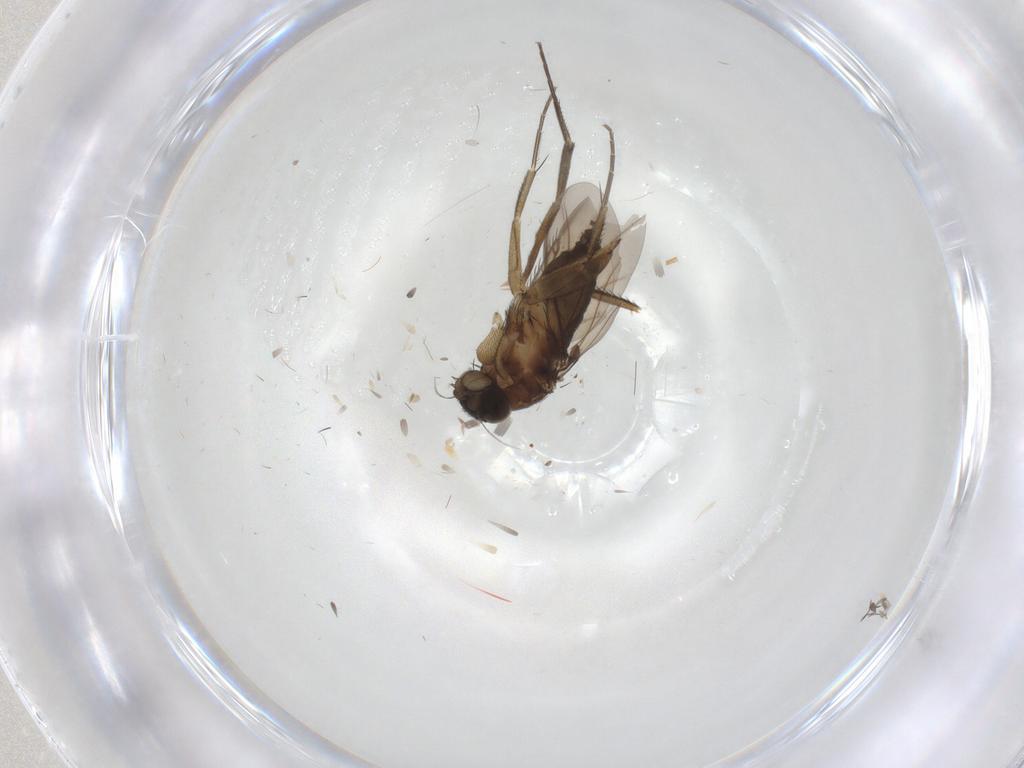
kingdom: Animalia
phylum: Arthropoda
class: Insecta
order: Diptera
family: Phoridae
